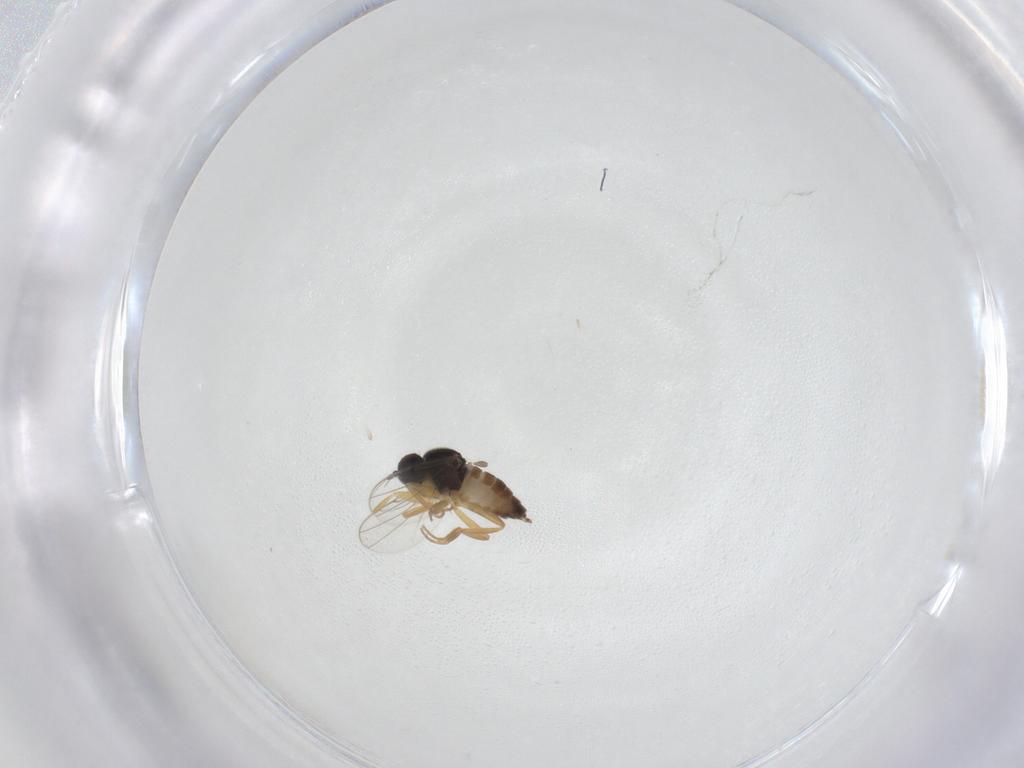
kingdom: Animalia
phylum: Arthropoda
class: Insecta
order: Diptera
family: Hybotidae
